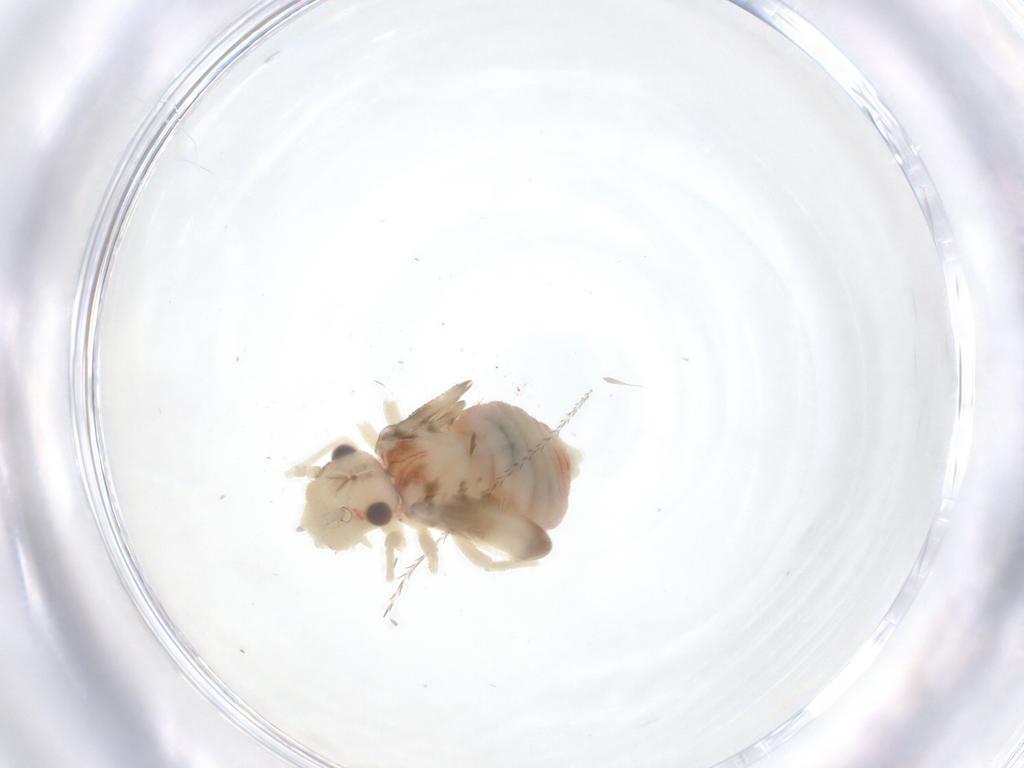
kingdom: Animalia
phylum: Arthropoda
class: Insecta
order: Psocodea
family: Amphipsocidae
